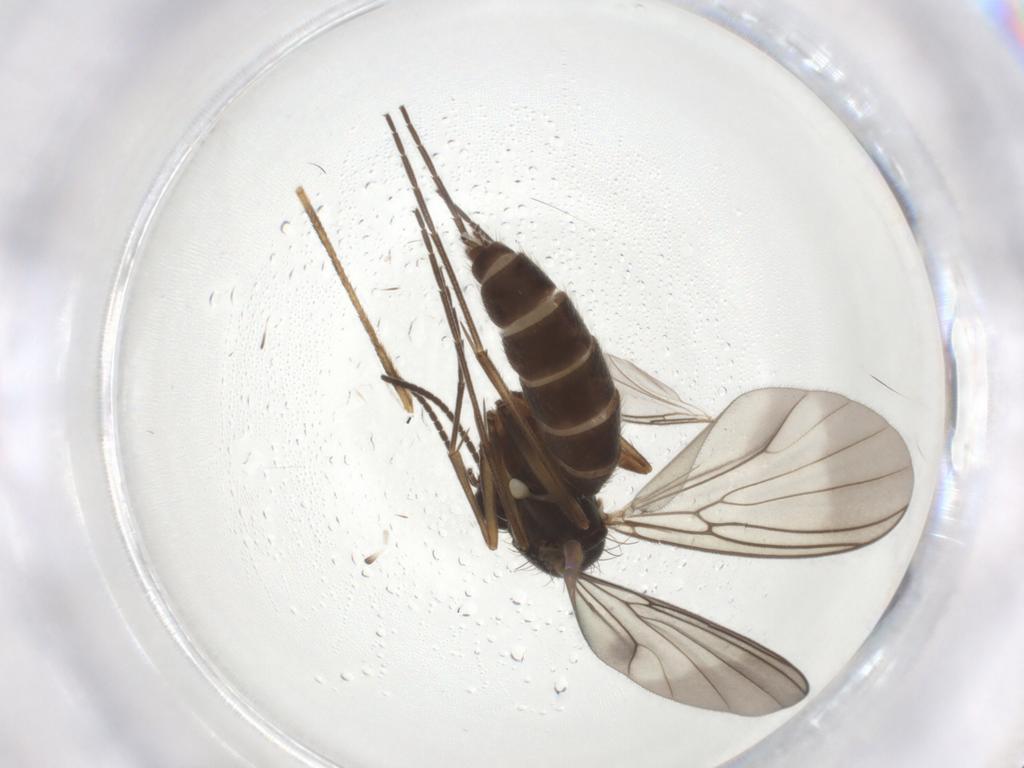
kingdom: Animalia
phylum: Arthropoda
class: Insecta
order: Diptera
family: Mycetophilidae
